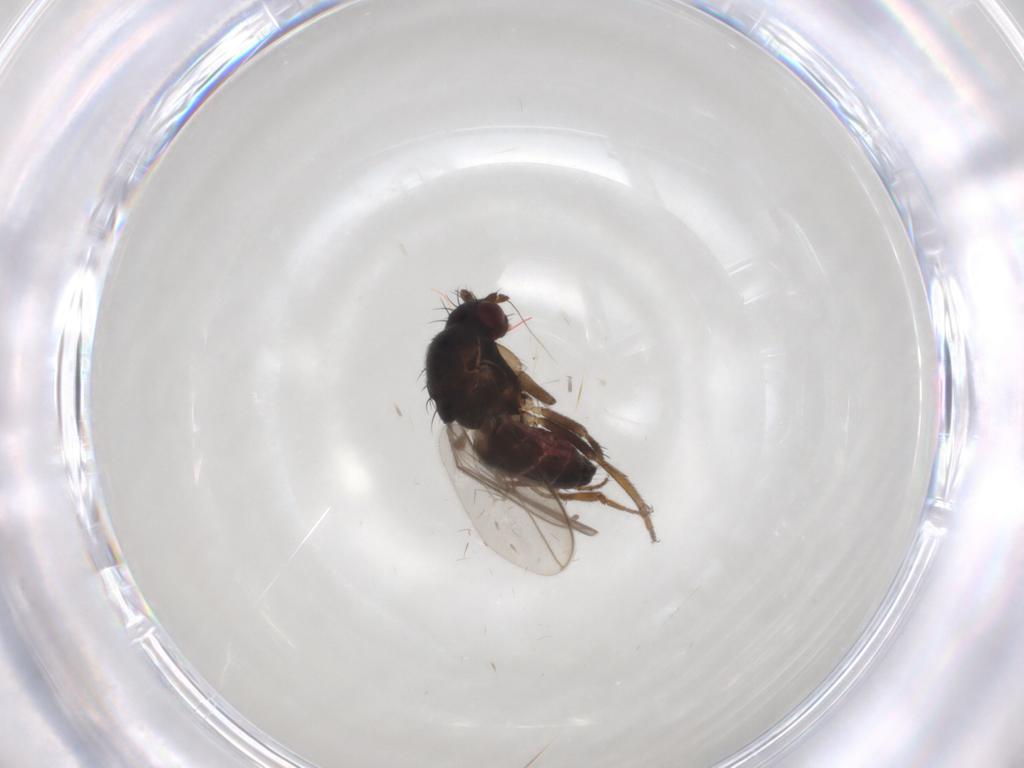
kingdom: Animalia
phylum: Arthropoda
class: Insecta
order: Diptera
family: Sphaeroceridae
